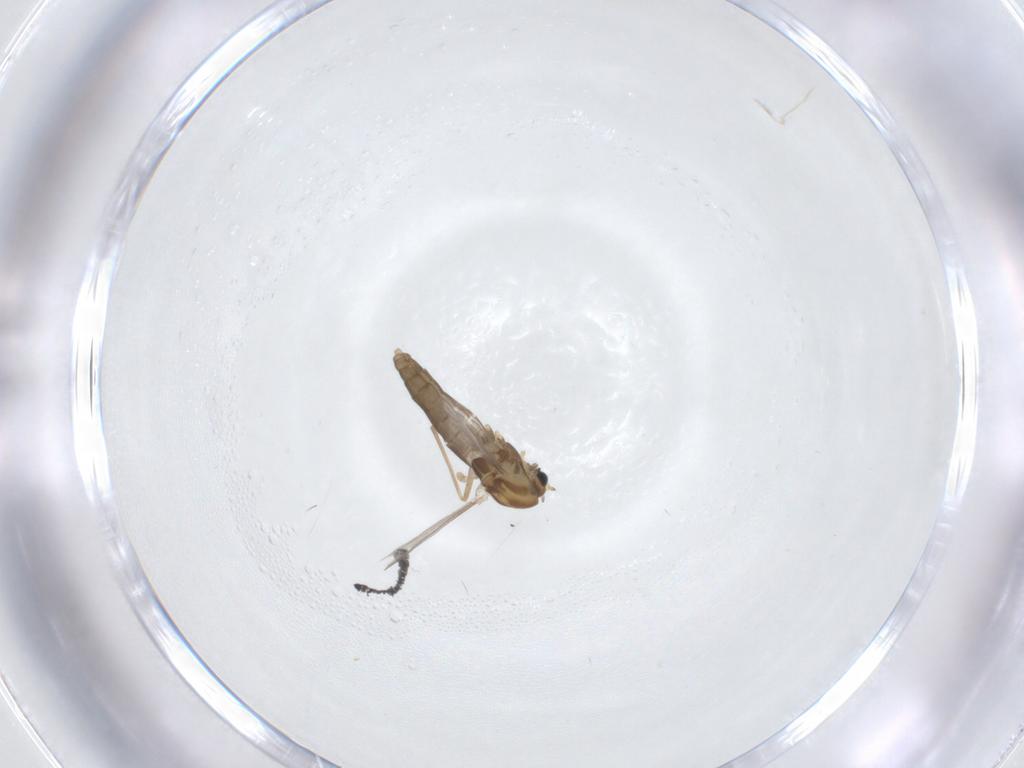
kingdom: Animalia
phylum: Arthropoda
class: Insecta
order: Diptera
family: Chironomidae
